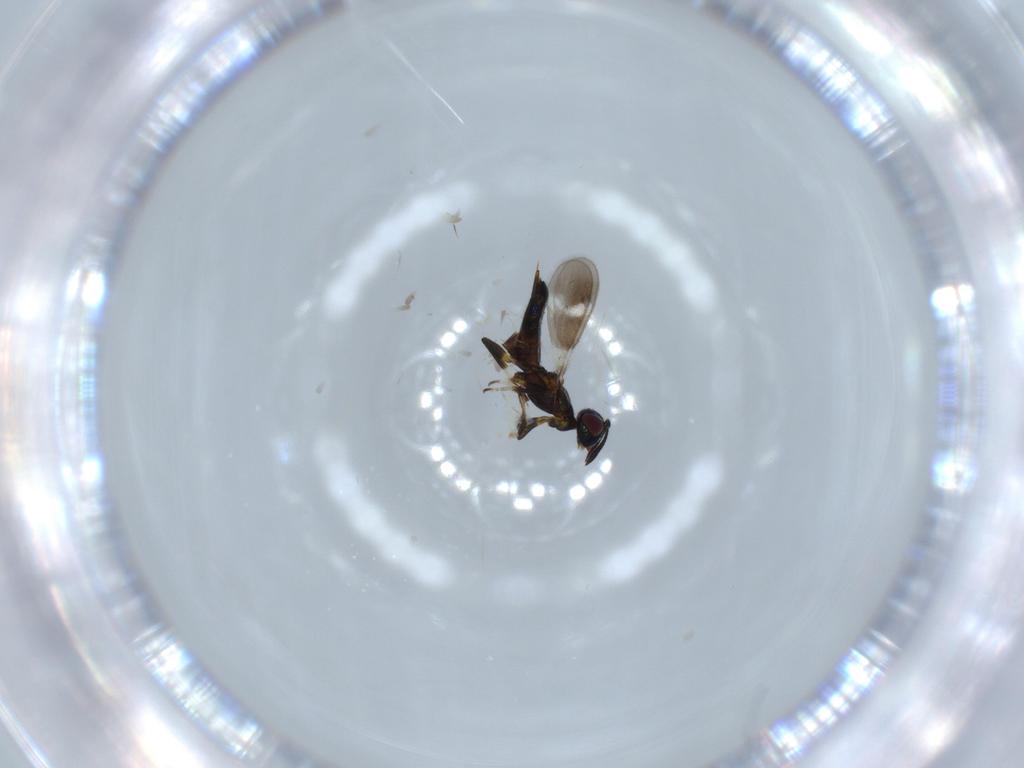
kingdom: Animalia
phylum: Arthropoda
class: Insecta
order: Hymenoptera
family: Eupelmidae
